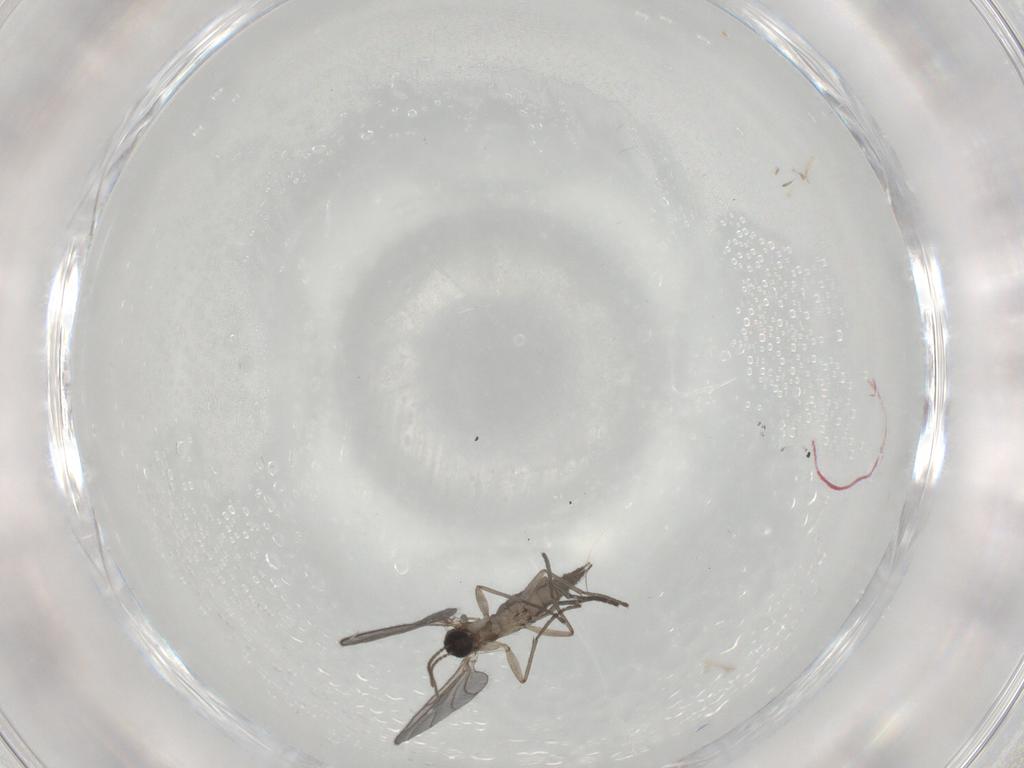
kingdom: Animalia
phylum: Arthropoda
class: Insecta
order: Diptera
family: Sciaridae
